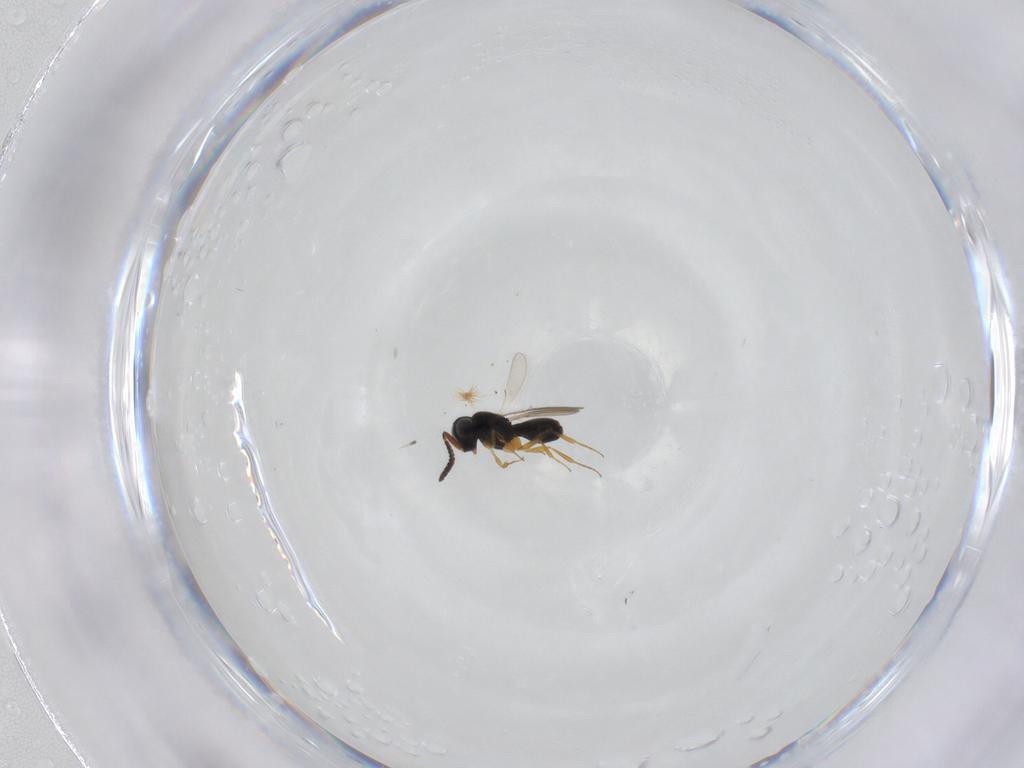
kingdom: Animalia
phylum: Arthropoda
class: Insecta
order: Hymenoptera
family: Scelionidae
